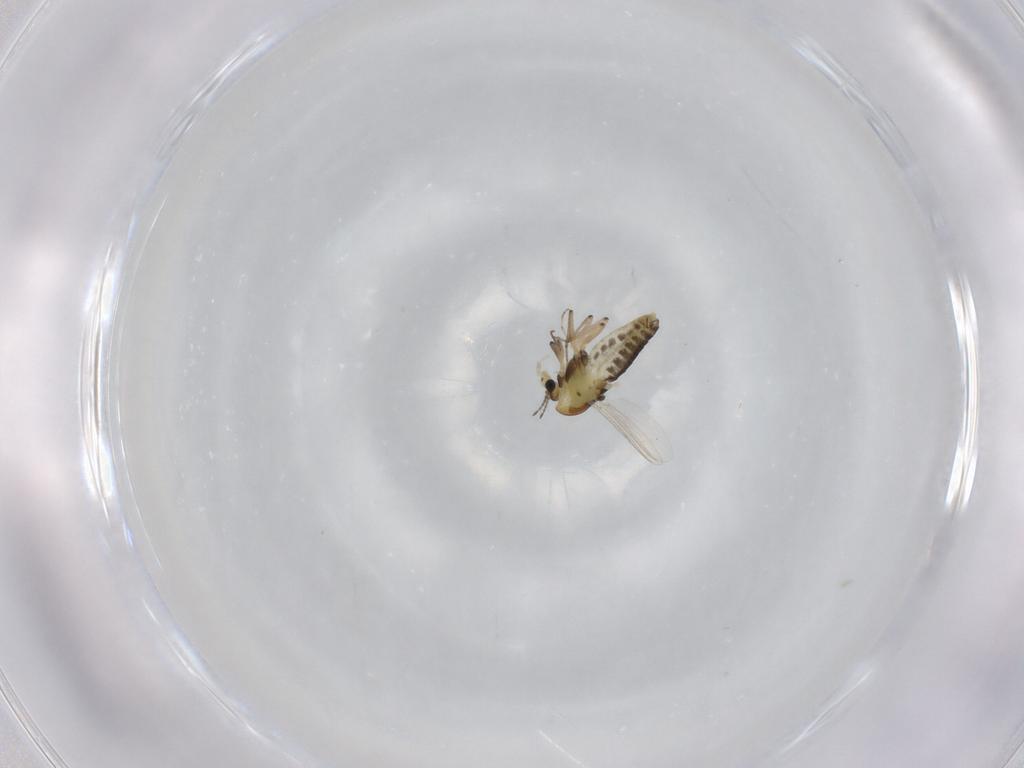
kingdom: Animalia
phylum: Arthropoda
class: Insecta
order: Diptera
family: Chironomidae
